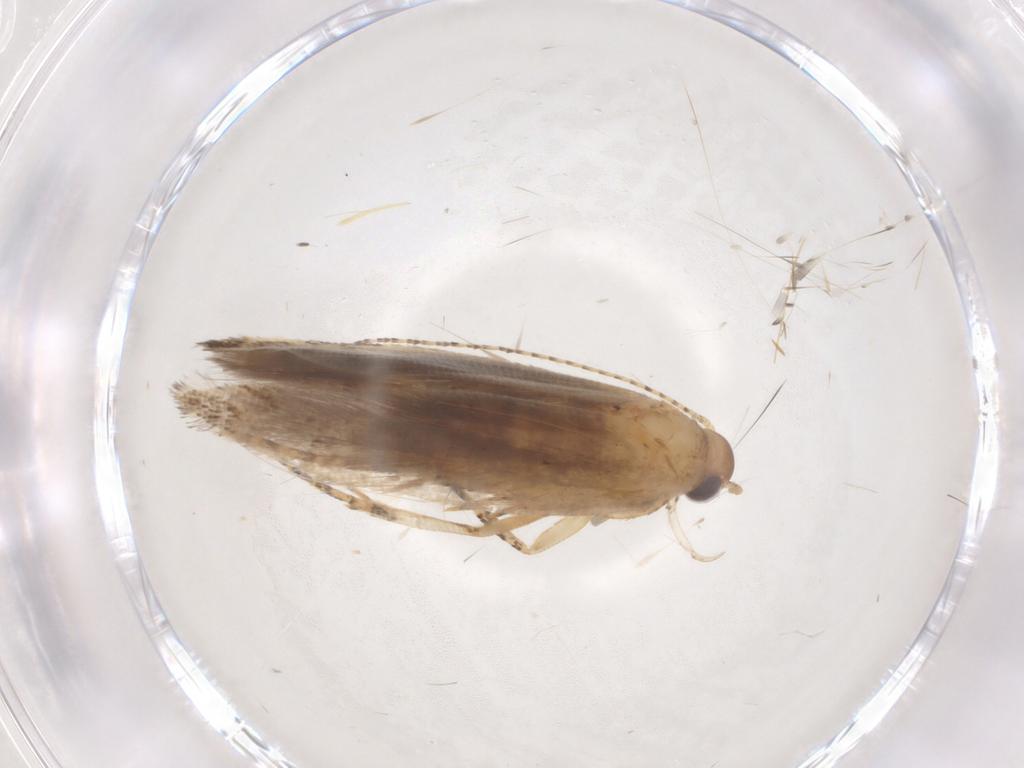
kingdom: Animalia
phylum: Arthropoda
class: Insecta
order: Lepidoptera
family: Gelechiidae
